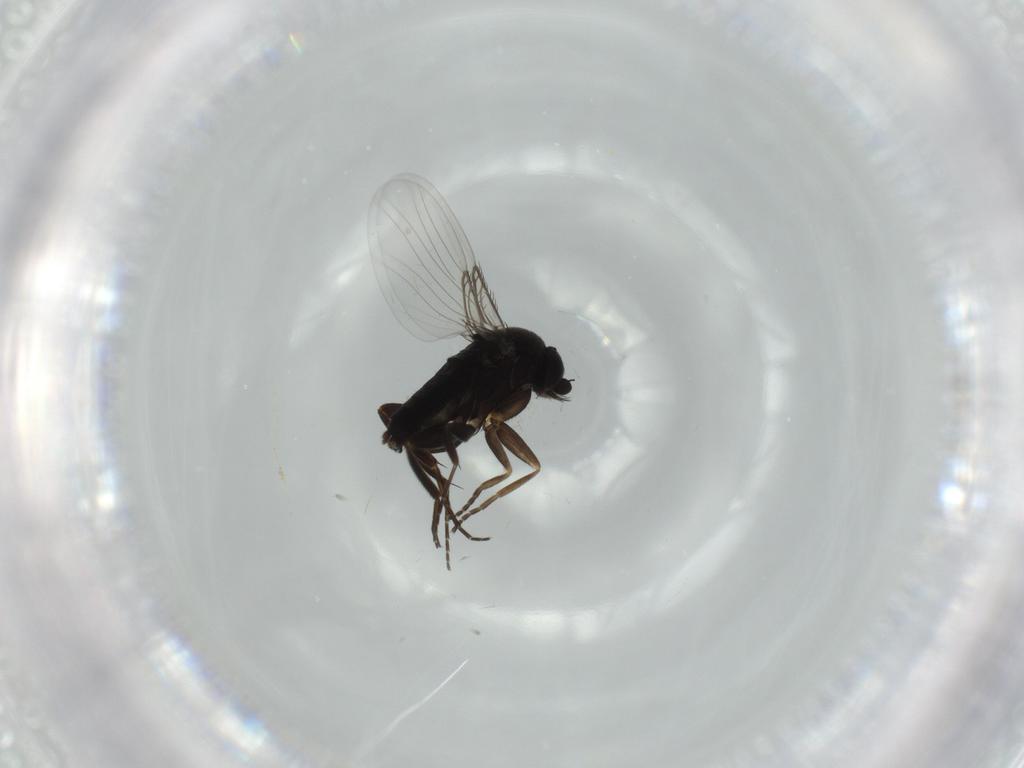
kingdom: Animalia
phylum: Arthropoda
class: Insecta
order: Diptera
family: Phoridae
